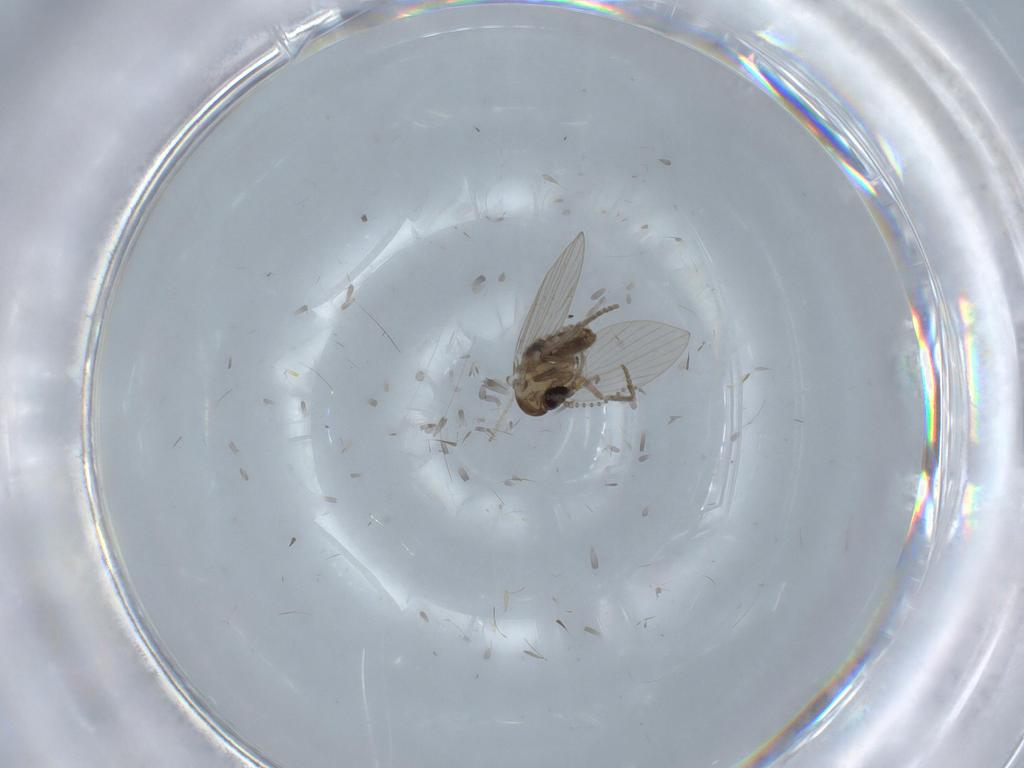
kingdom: Animalia
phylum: Arthropoda
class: Insecta
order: Diptera
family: Psychodidae
